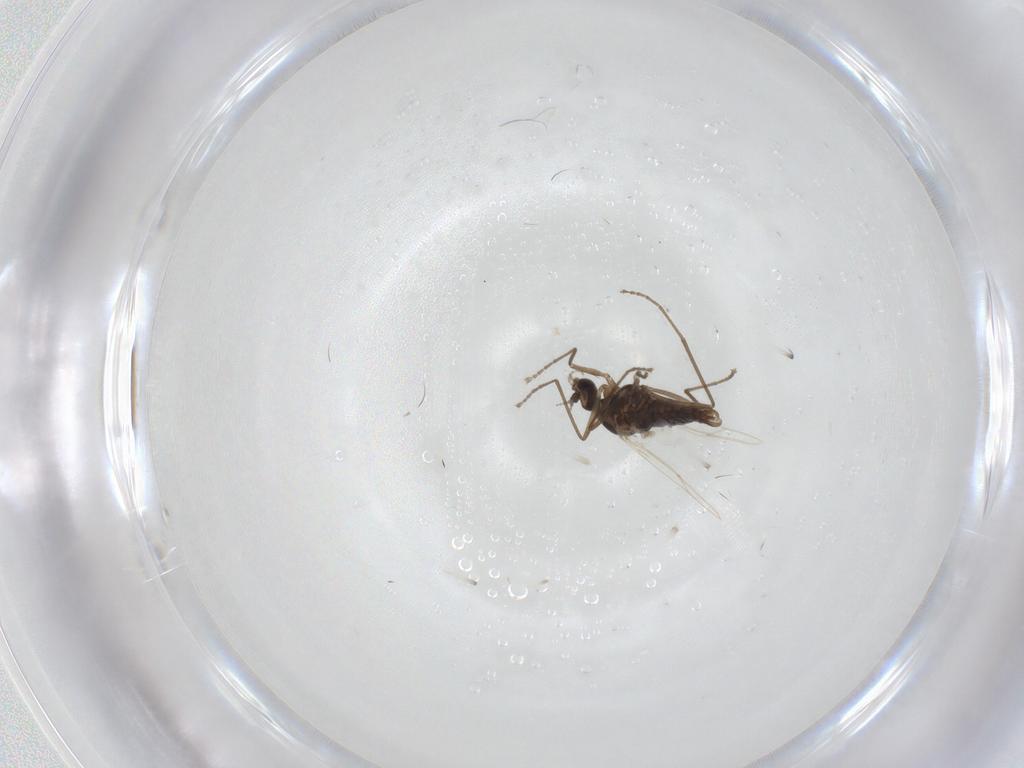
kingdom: Animalia
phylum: Arthropoda
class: Insecta
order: Diptera
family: Cecidomyiidae
